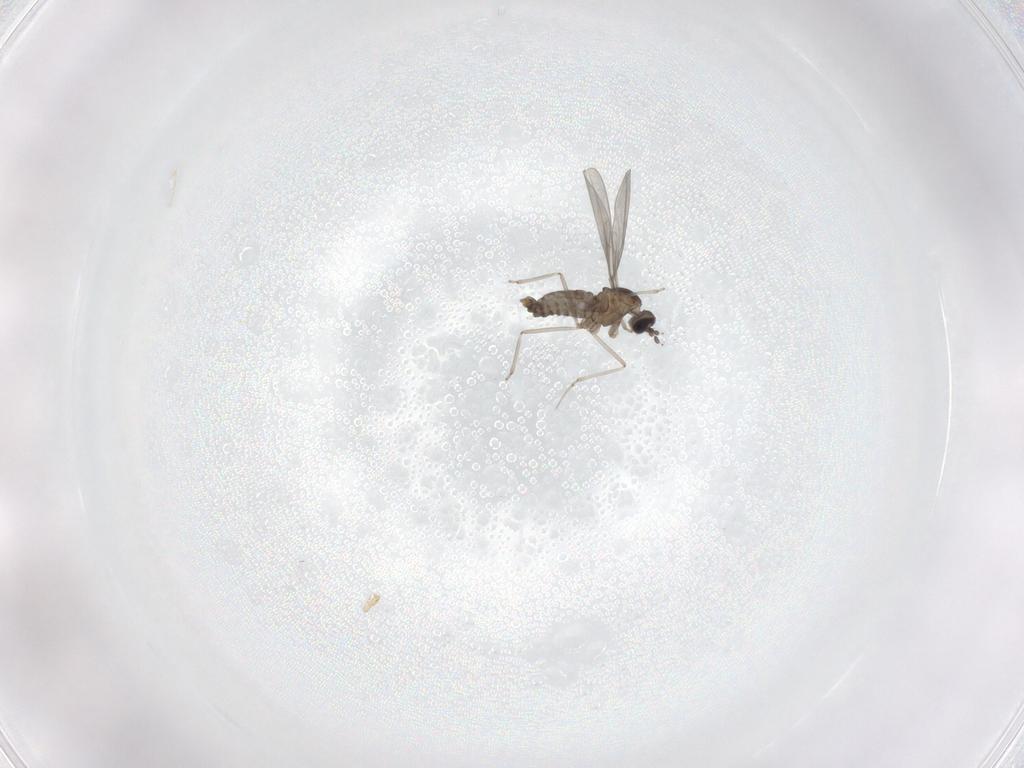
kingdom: Animalia
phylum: Arthropoda
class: Insecta
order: Diptera
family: Cecidomyiidae
